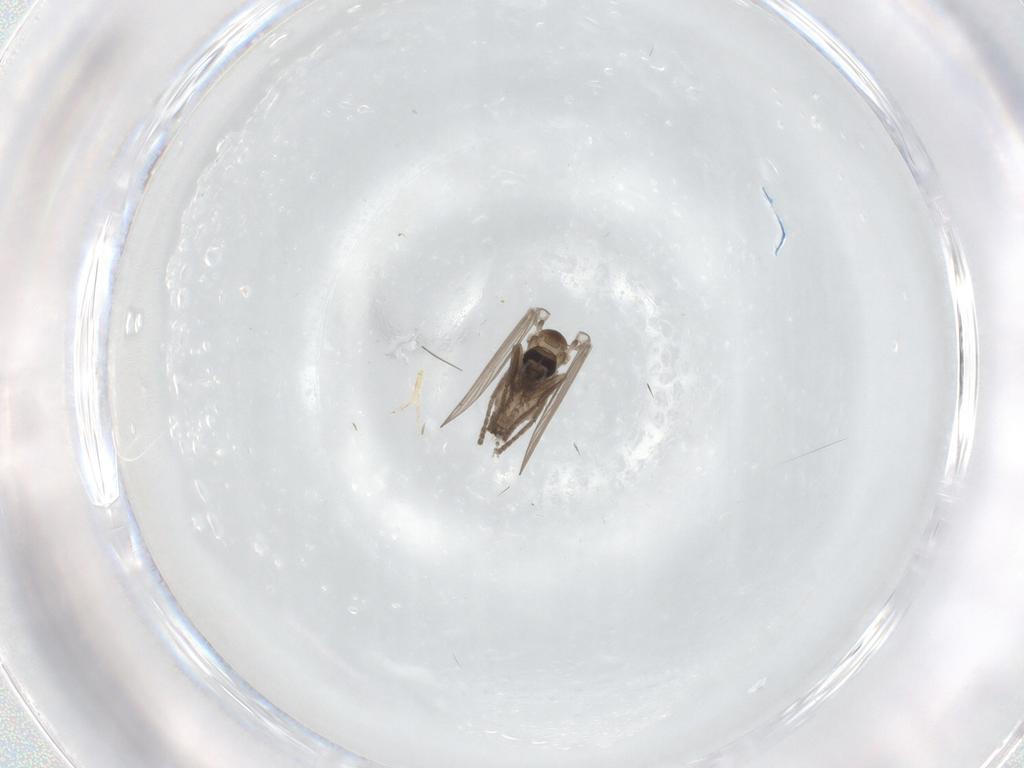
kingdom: Animalia
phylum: Arthropoda
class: Insecta
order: Diptera
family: Psychodidae
